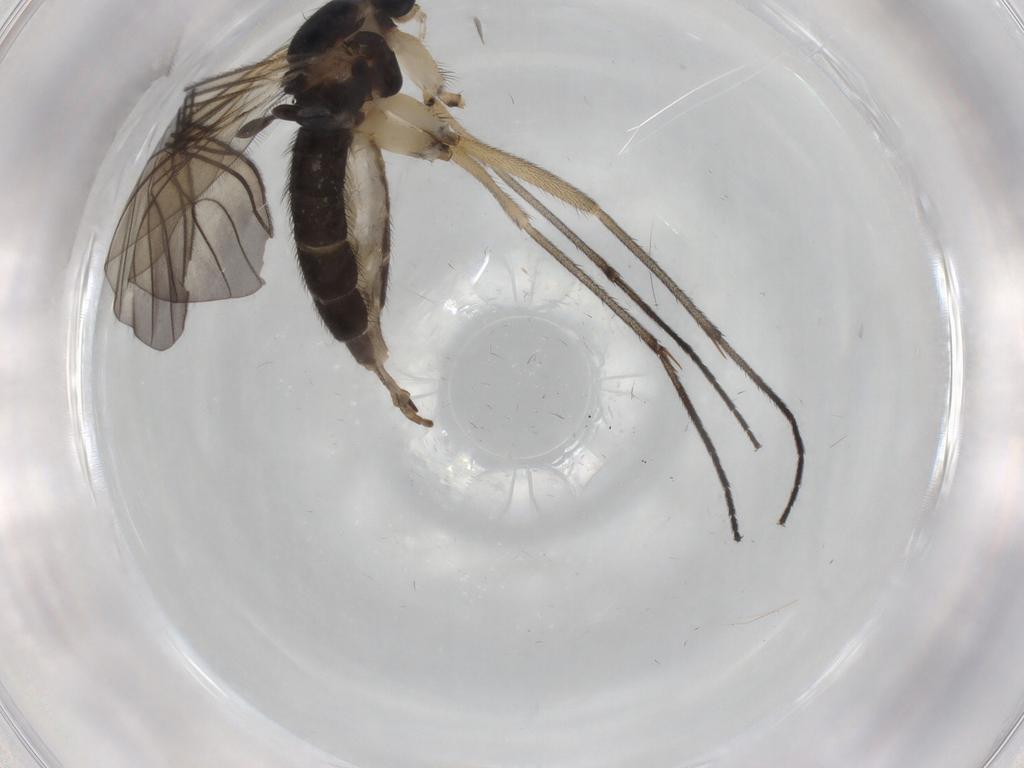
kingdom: Animalia
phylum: Arthropoda
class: Insecta
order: Diptera
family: Sciaridae
